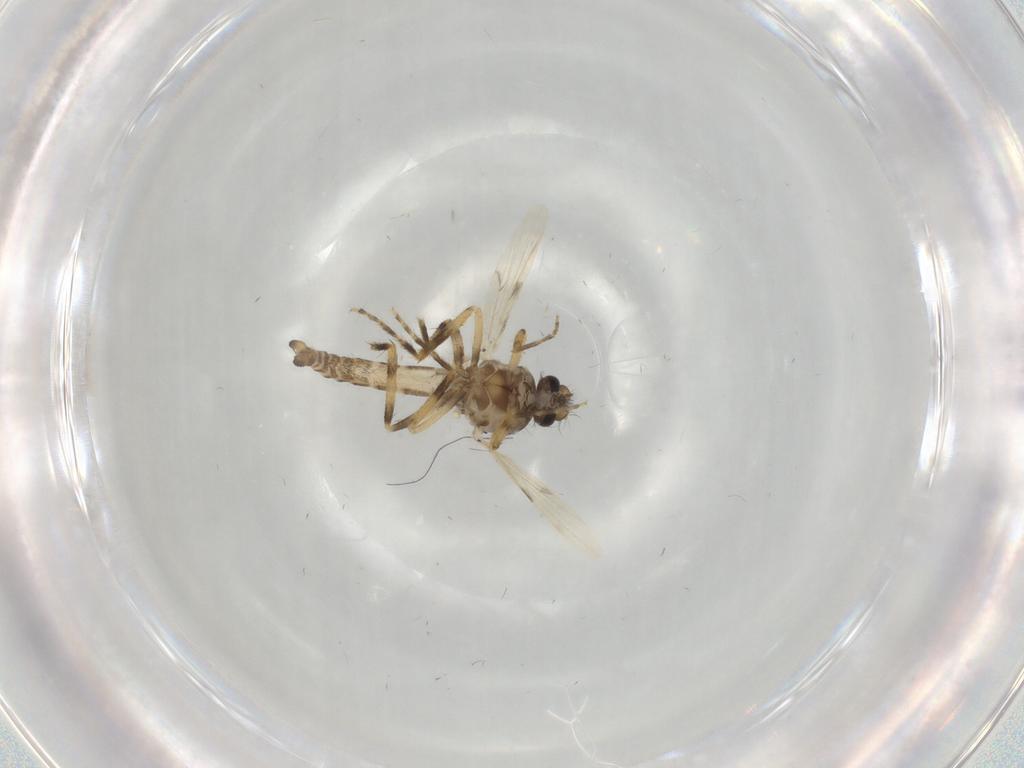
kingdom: Animalia
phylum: Arthropoda
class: Insecta
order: Diptera
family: Ceratopogonidae
